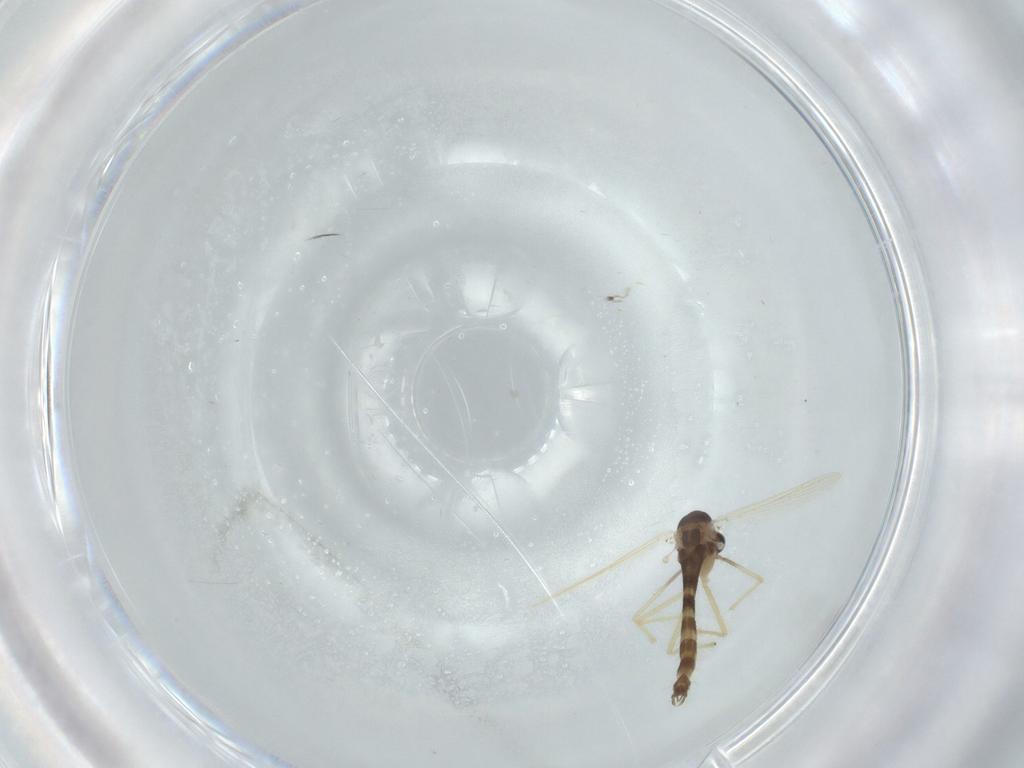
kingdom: Animalia
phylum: Arthropoda
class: Insecta
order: Diptera
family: Chironomidae
